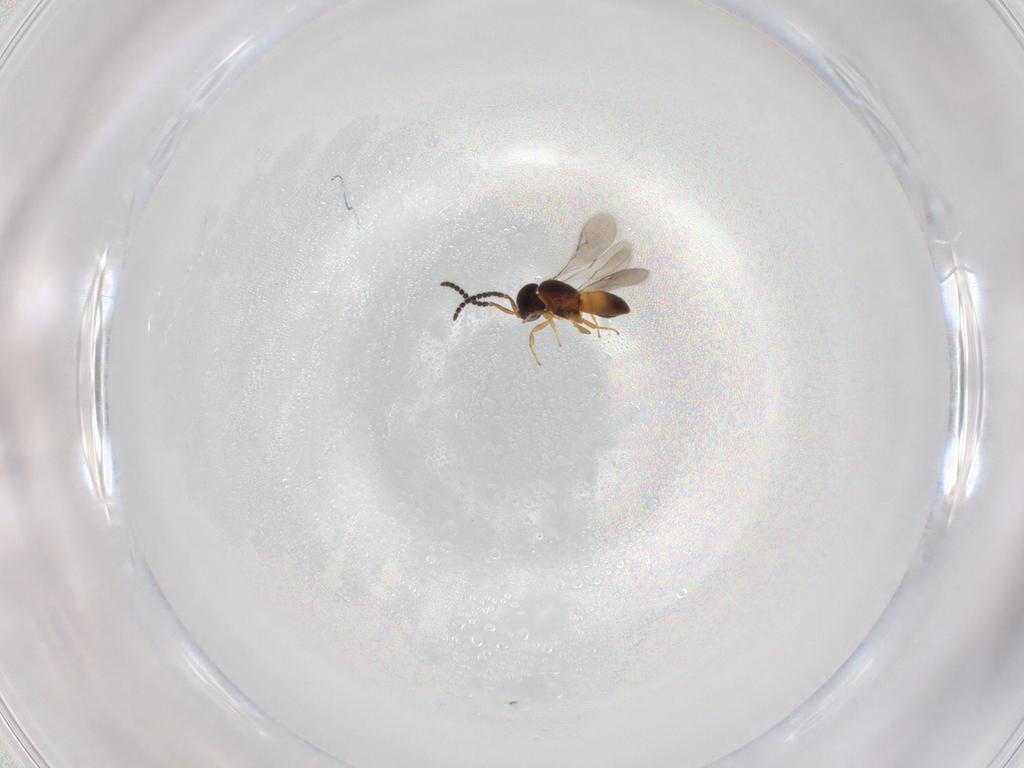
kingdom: Animalia
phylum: Arthropoda
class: Insecta
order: Hymenoptera
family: Scelionidae
